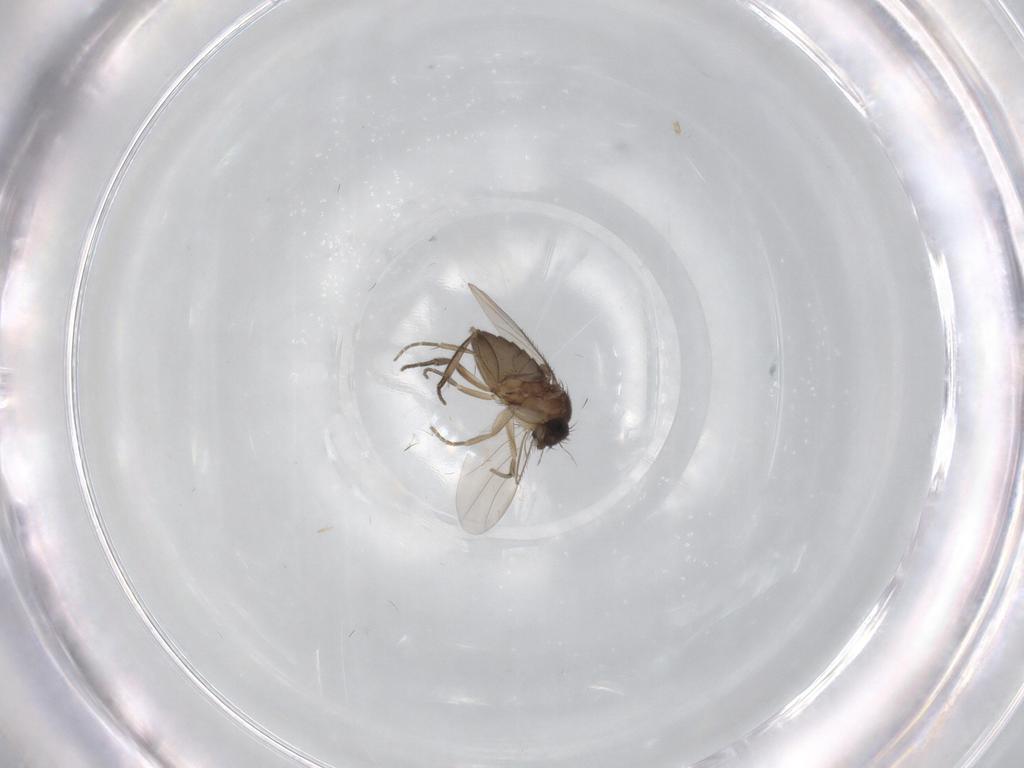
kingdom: Animalia
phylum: Arthropoda
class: Insecta
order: Diptera
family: Phoridae
